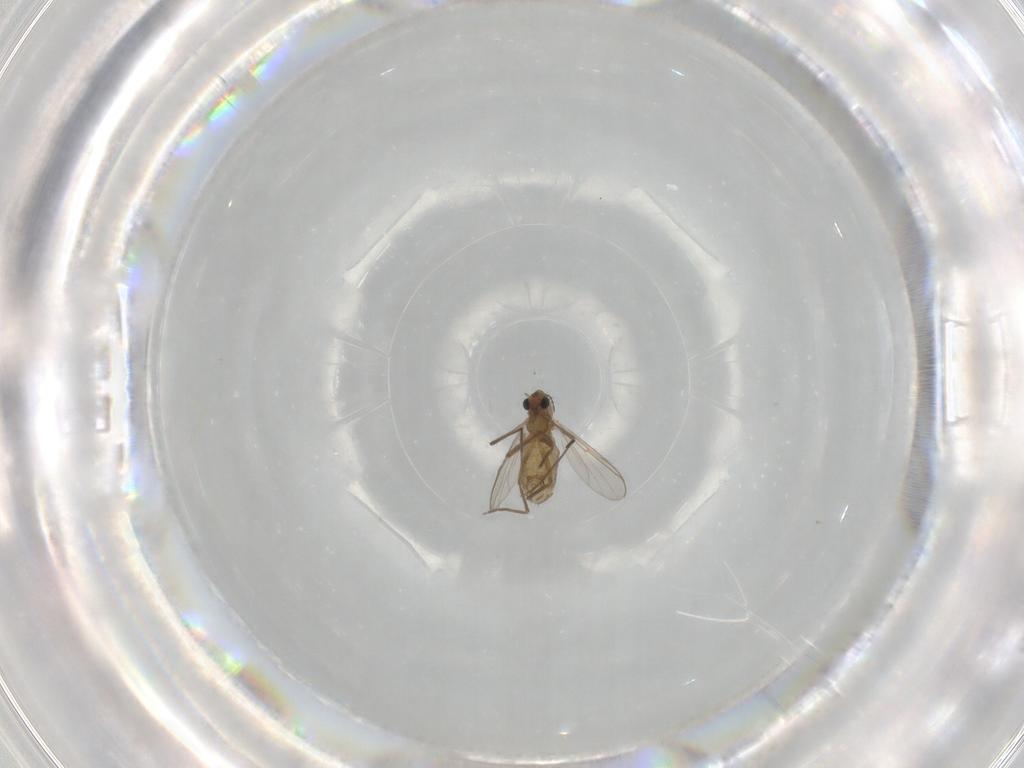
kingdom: Animalia
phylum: Arthropoda
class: Insecta
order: Diptera
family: Chironomidae
